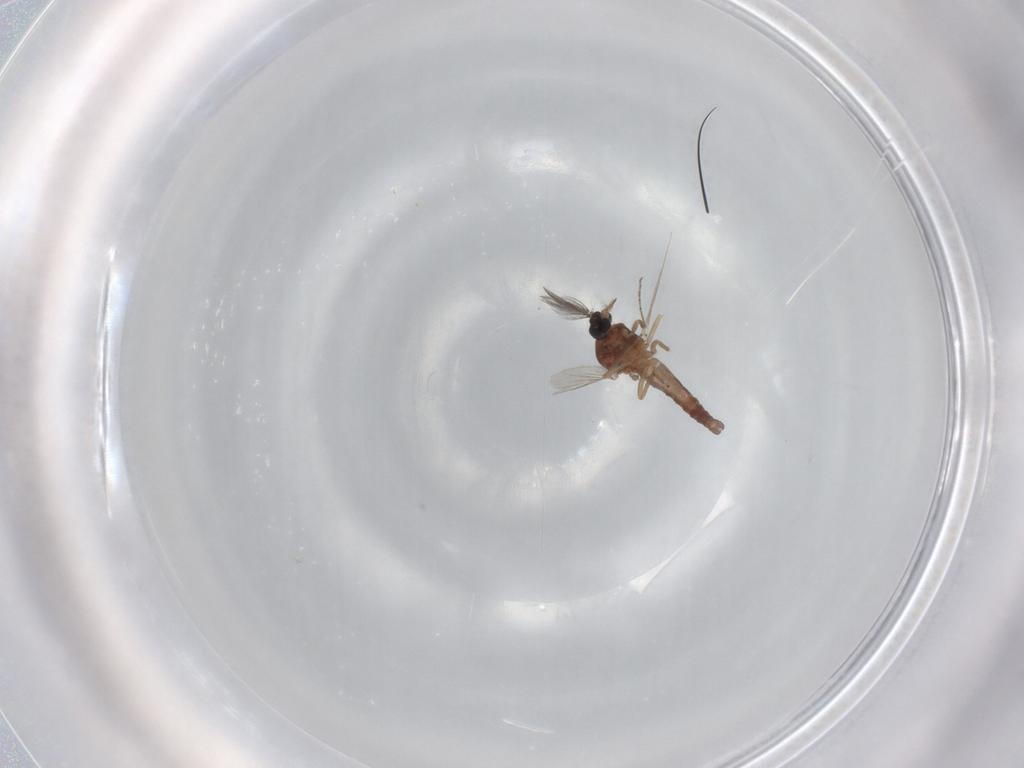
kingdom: Animalia
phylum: Arthropoda
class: Insecta
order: Diptera
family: Ceratopogonidae
